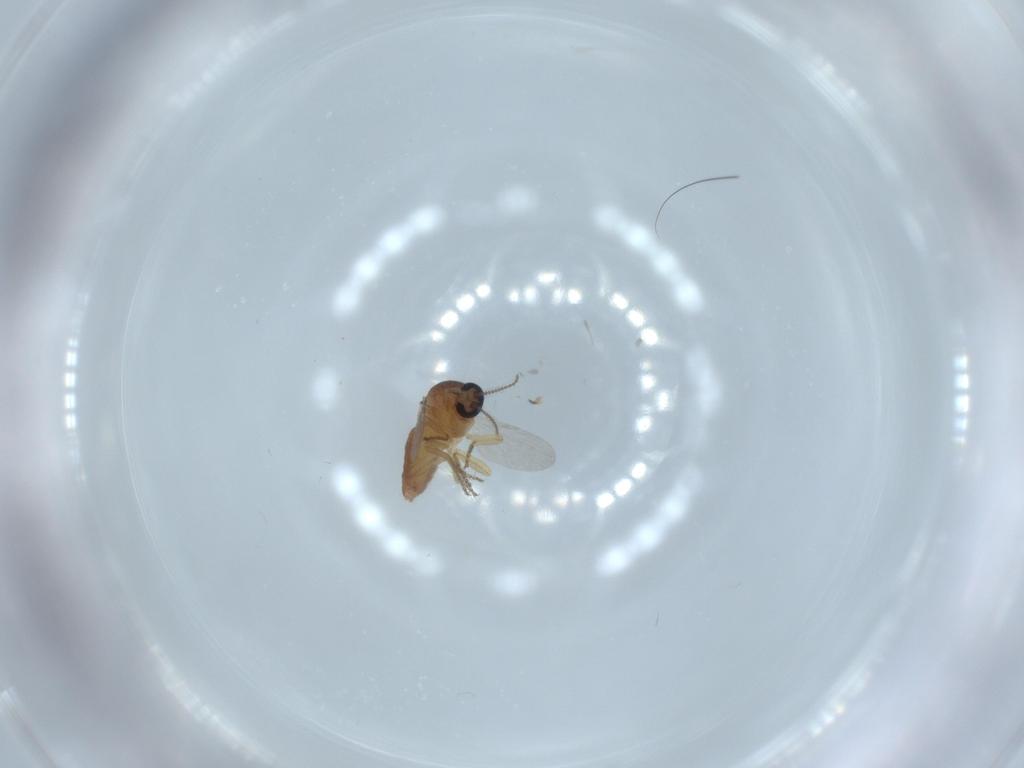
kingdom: Animalia
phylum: Arthropoda
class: Insecta
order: Diptera
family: Ceratopogonidae
